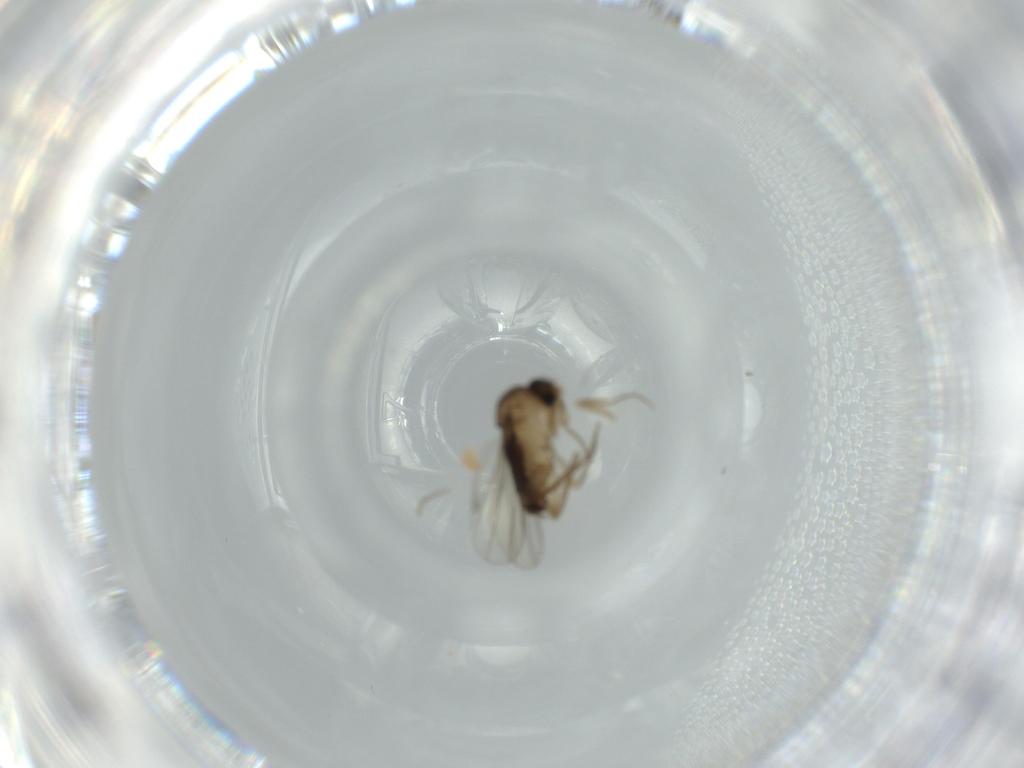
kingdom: Animalia
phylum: Arthropoda
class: Insecta
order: Diptera
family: Phoridae
